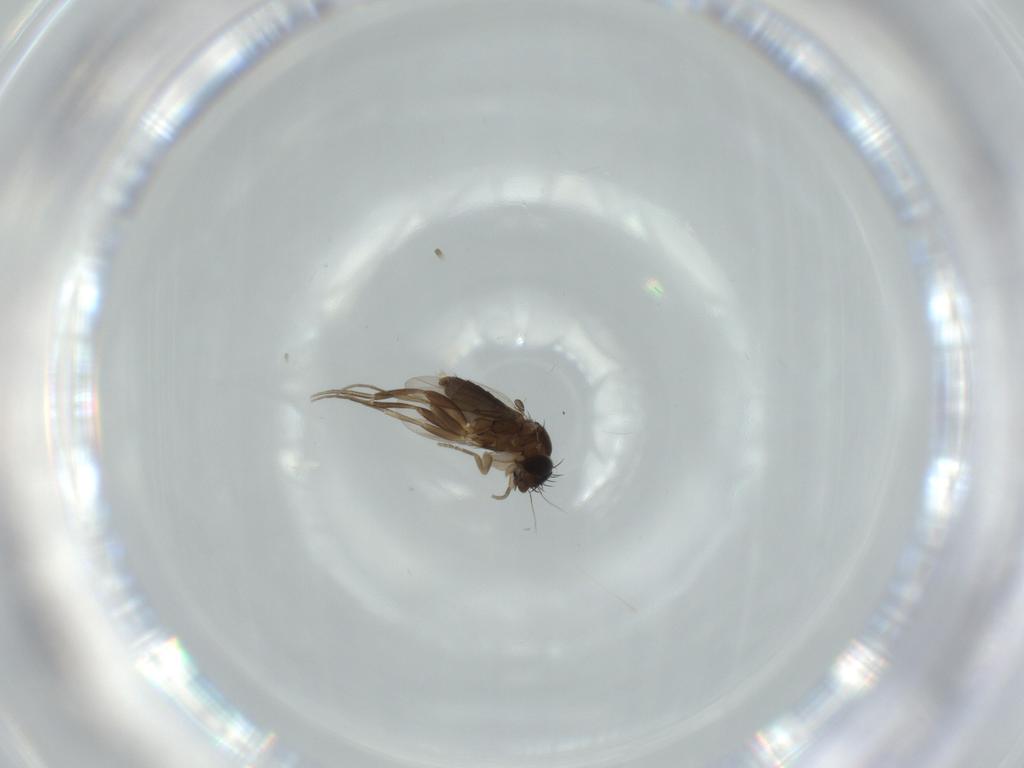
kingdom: Animalia
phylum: Arthropoda
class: Insecta
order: Diptera
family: Phoridae
